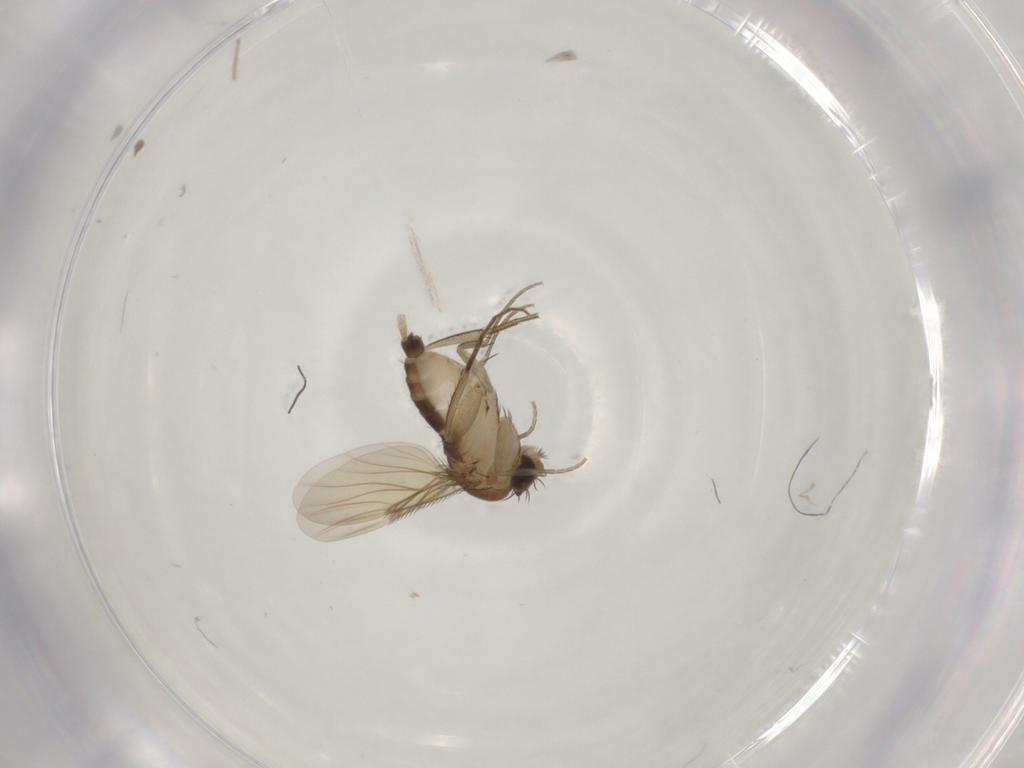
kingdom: Animalia
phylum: Arthropoda
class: Insecta
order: Diptera
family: Phoridae
